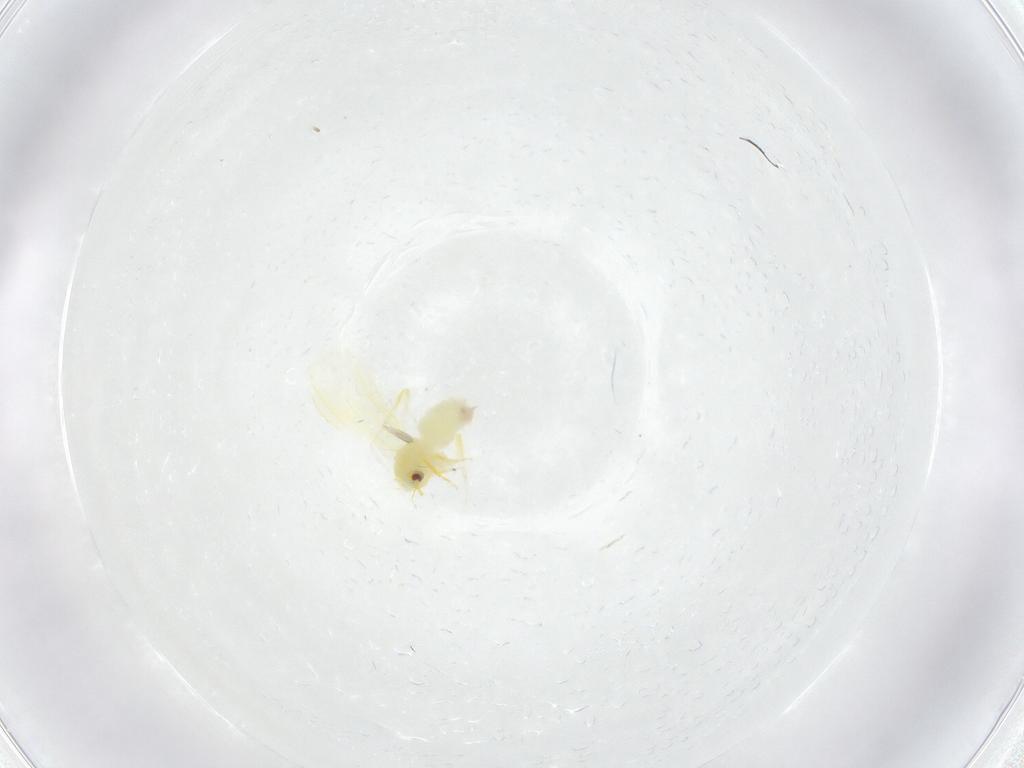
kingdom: Animalia
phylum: Arthropoda
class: Insecta
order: Hemiptera
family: Aleyrodidae
